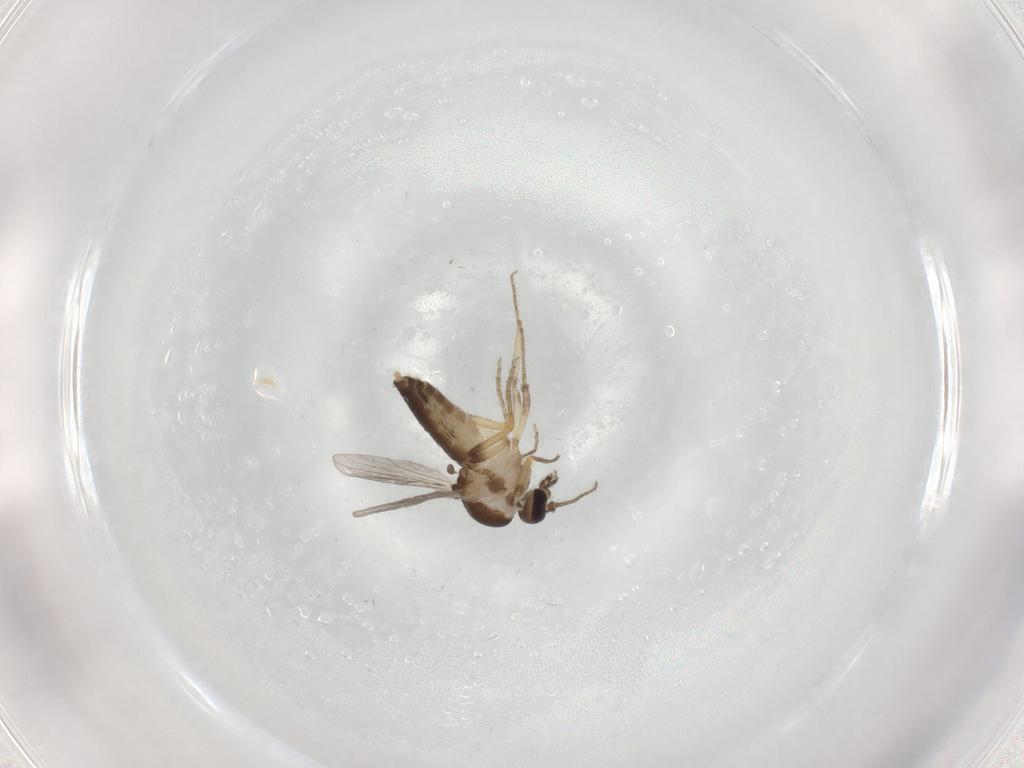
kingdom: Animalia
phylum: Arthropoda
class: Insecta
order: Diptera
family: Ceratopogonidae
